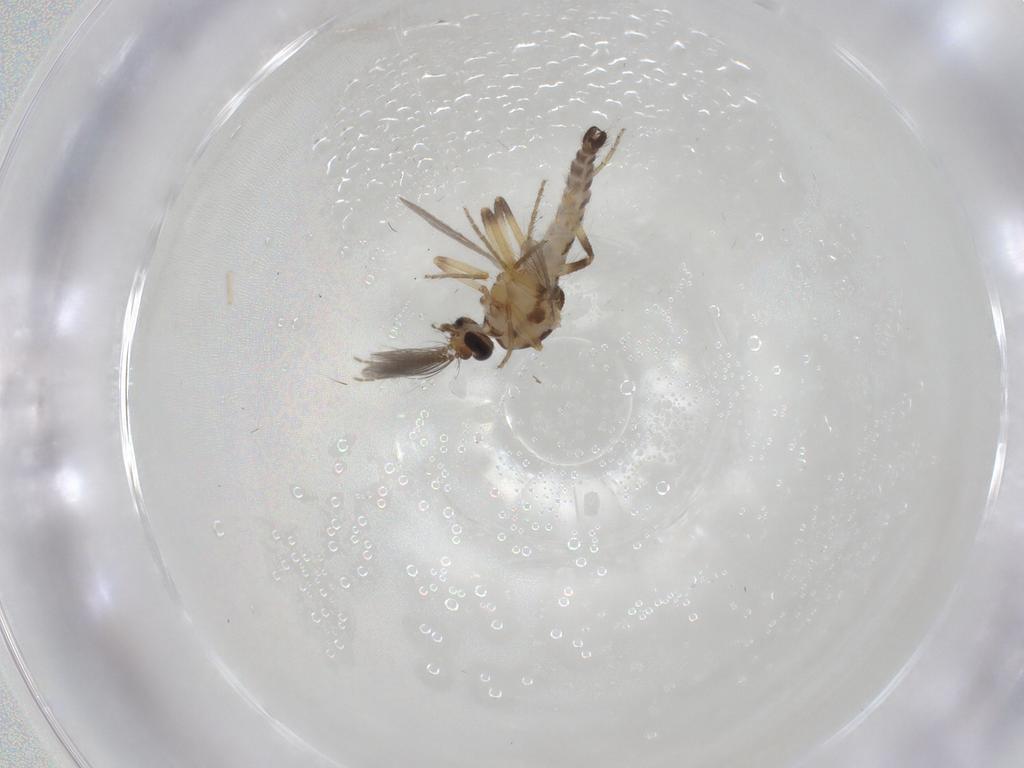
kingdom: Animalia
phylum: Arthropoda
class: Insecta
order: Diptera
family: Ceratopogonidae
